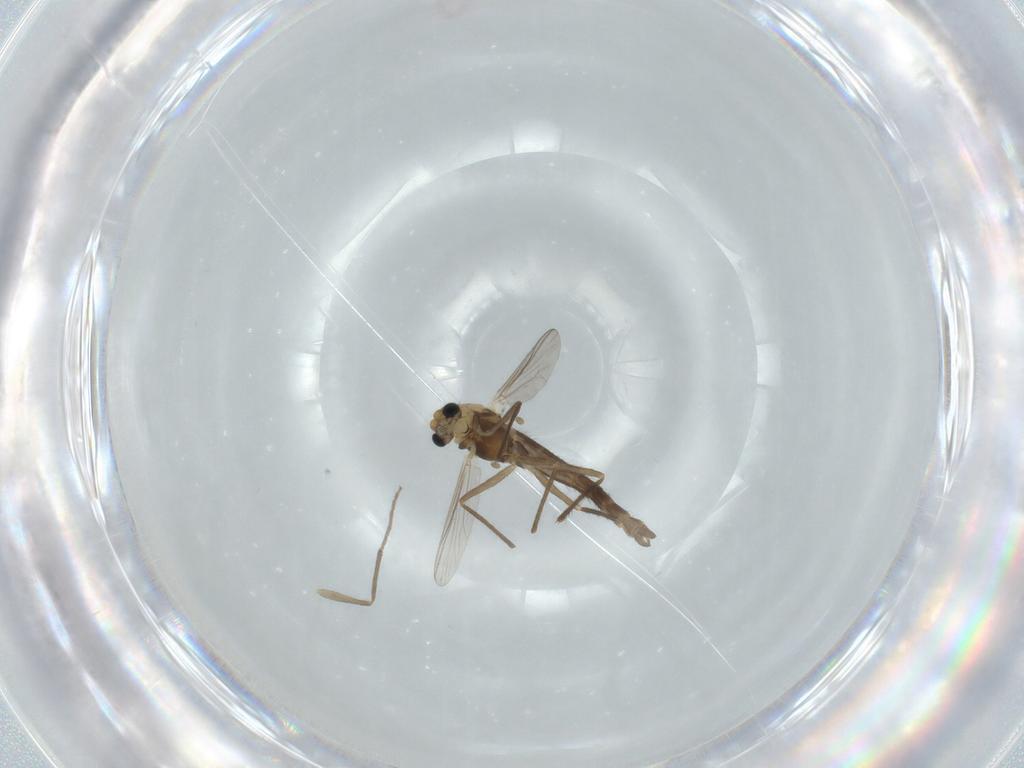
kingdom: Animalia
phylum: Arthropoda
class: Insecta
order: Diptera
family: Chironomidae
